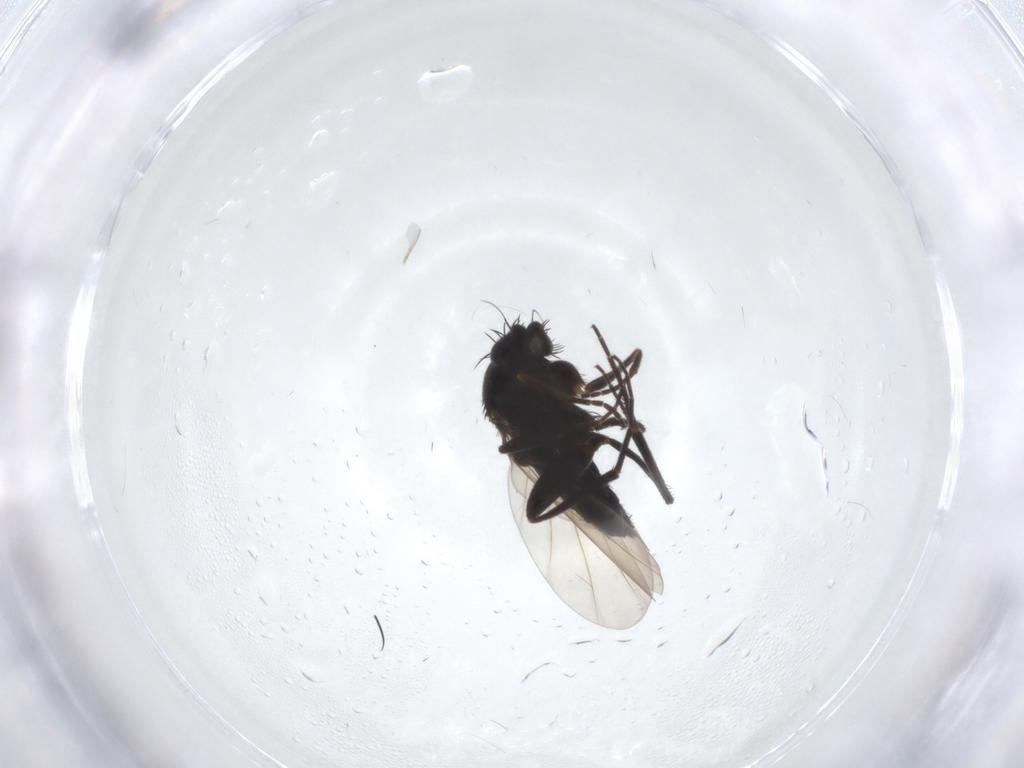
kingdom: Animalia
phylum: Arthropoda
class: Insecta
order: Diptera
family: Phoridae
